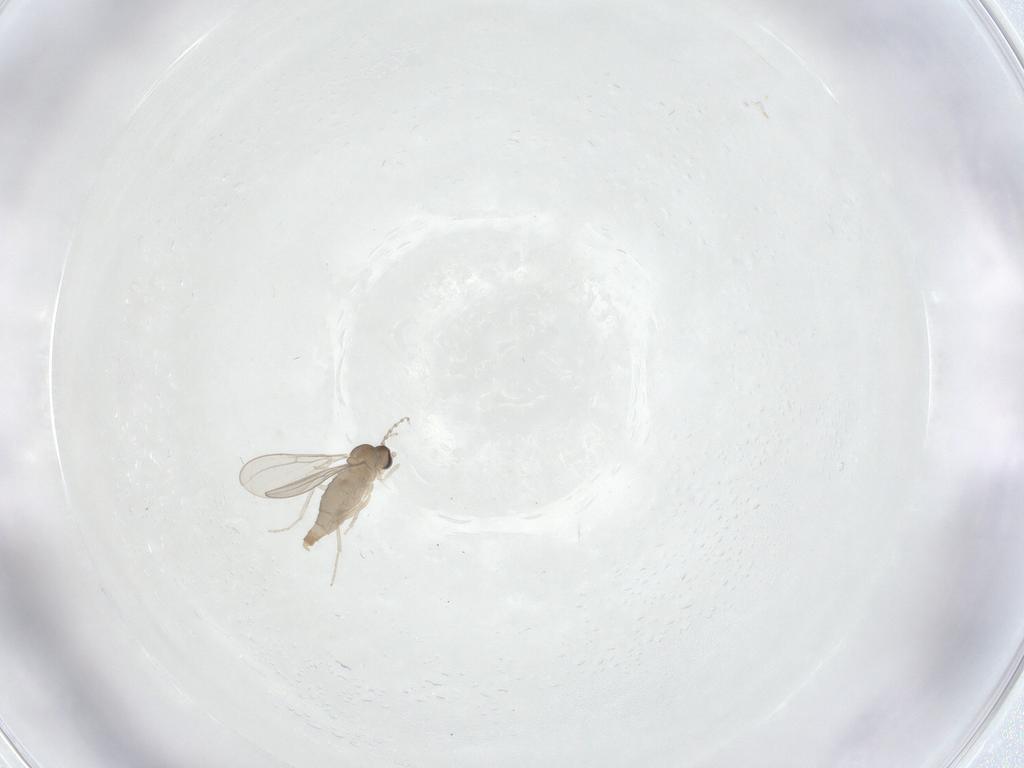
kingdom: Animalia
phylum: Arthropoda
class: Insecta
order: Diptera
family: Cecidomyiidae
